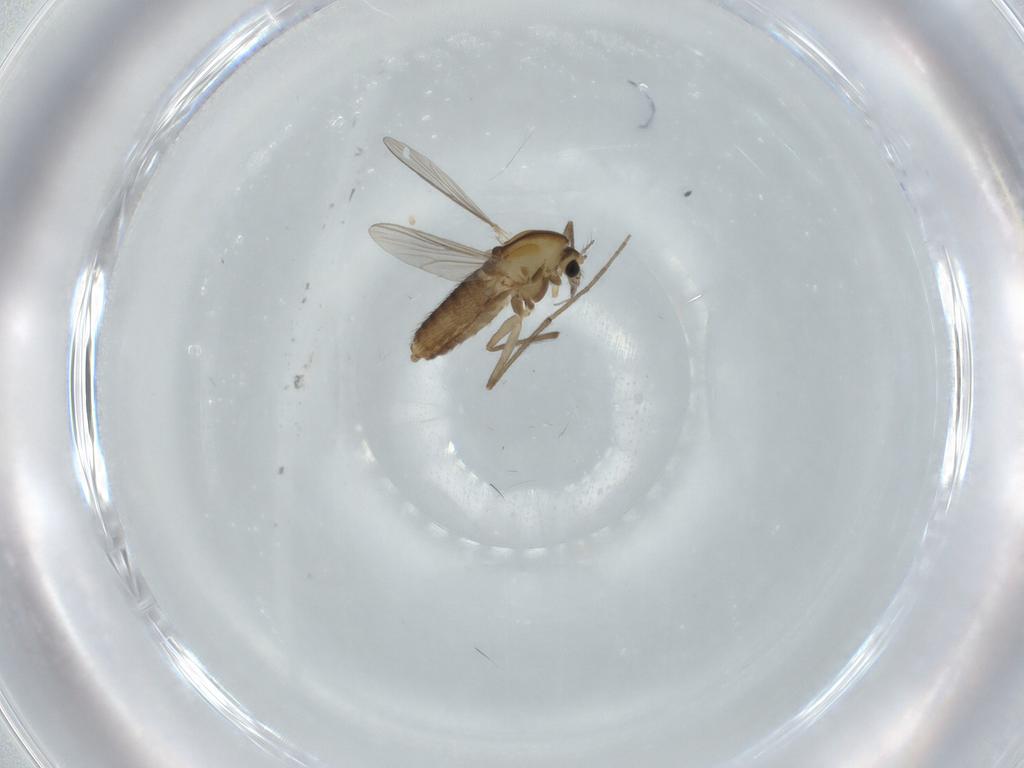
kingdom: Animalia
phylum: Arthropoda
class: Insecta
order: Diptera
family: Chironomidae
